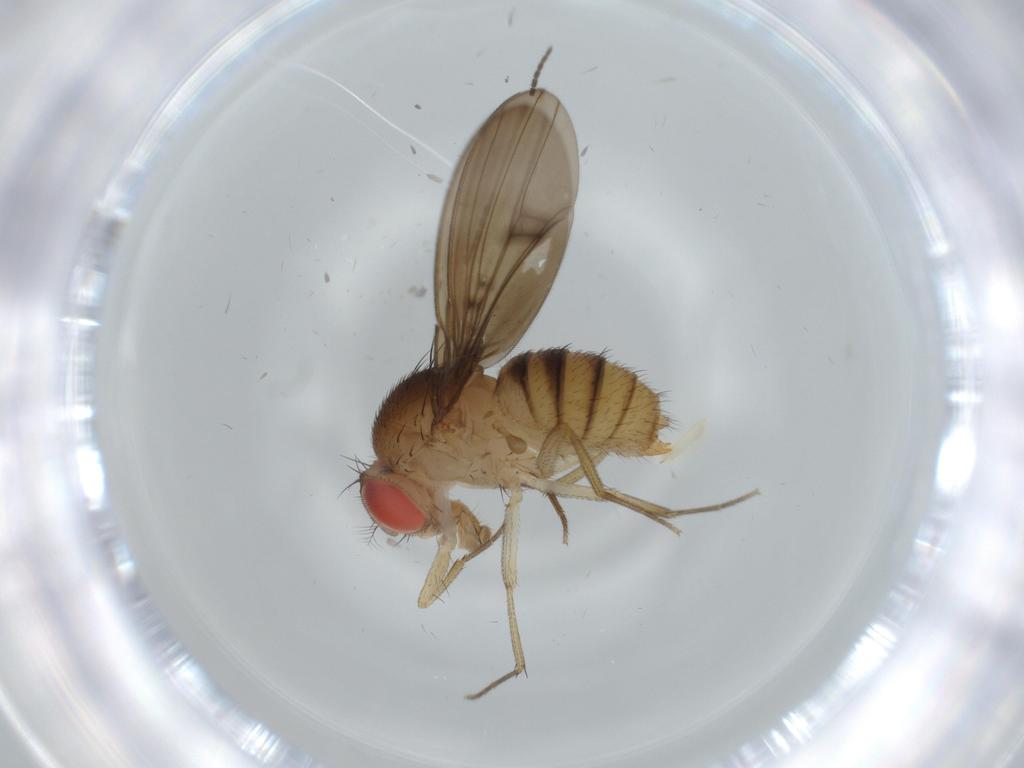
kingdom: Animalia
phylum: Arthropoda
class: Insecta
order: Diptera
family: Drosophilidae
